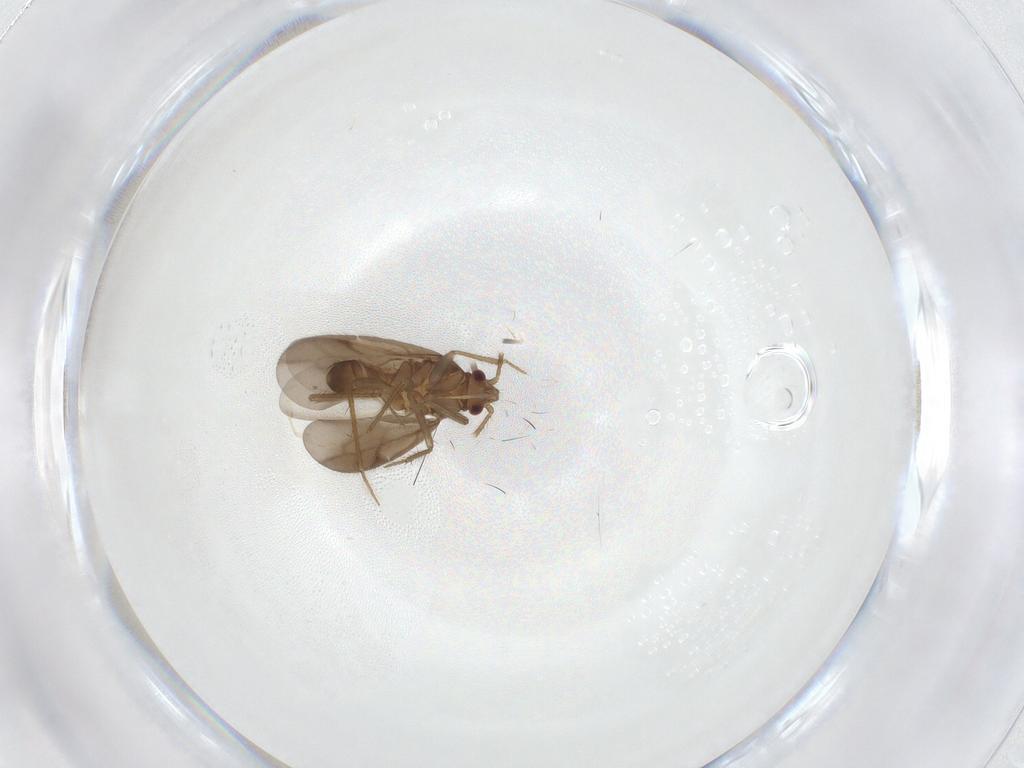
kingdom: Animalia
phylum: Arthropoda
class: Insecta
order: Hemiptera
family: Ceratocombidae
